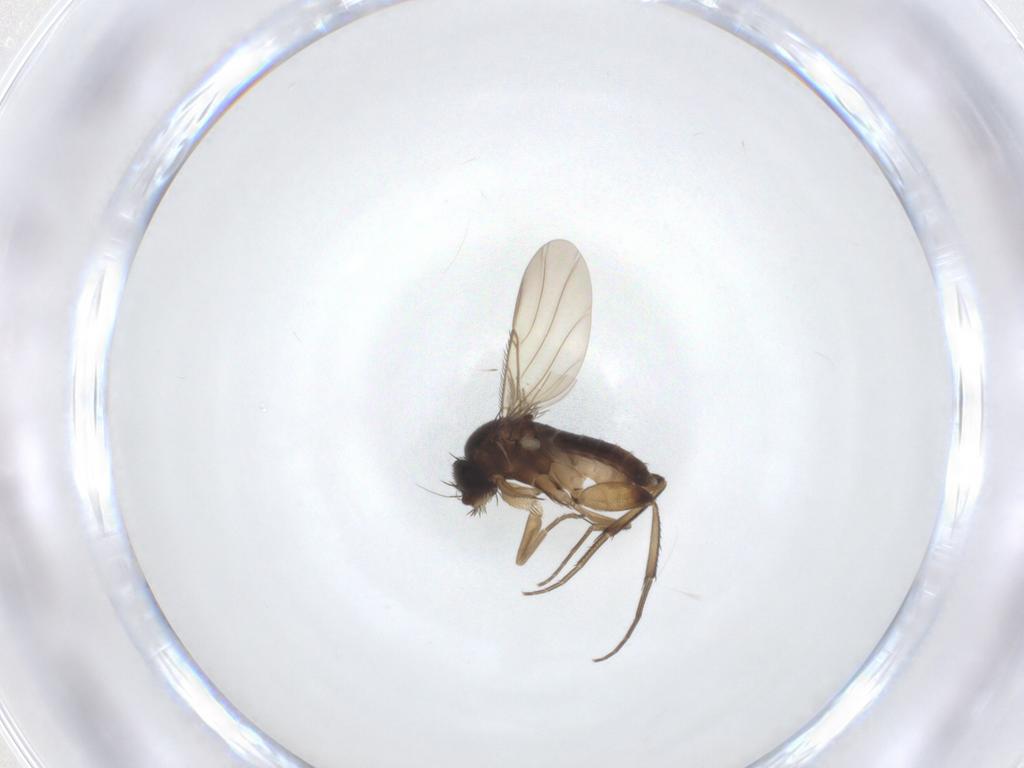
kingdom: Animalia
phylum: Arthropoda
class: Insecta
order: Diptera
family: Phoridae
